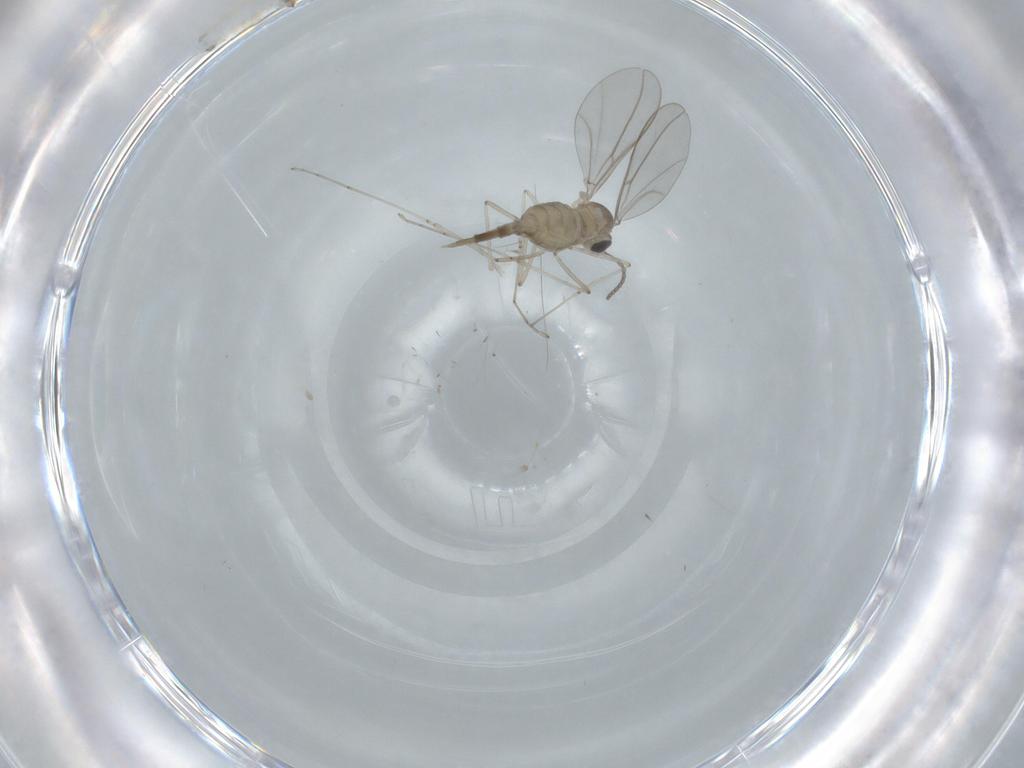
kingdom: Animalia
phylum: Arthropoda
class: Insecta
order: Diptera
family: Cecidomyiidae
